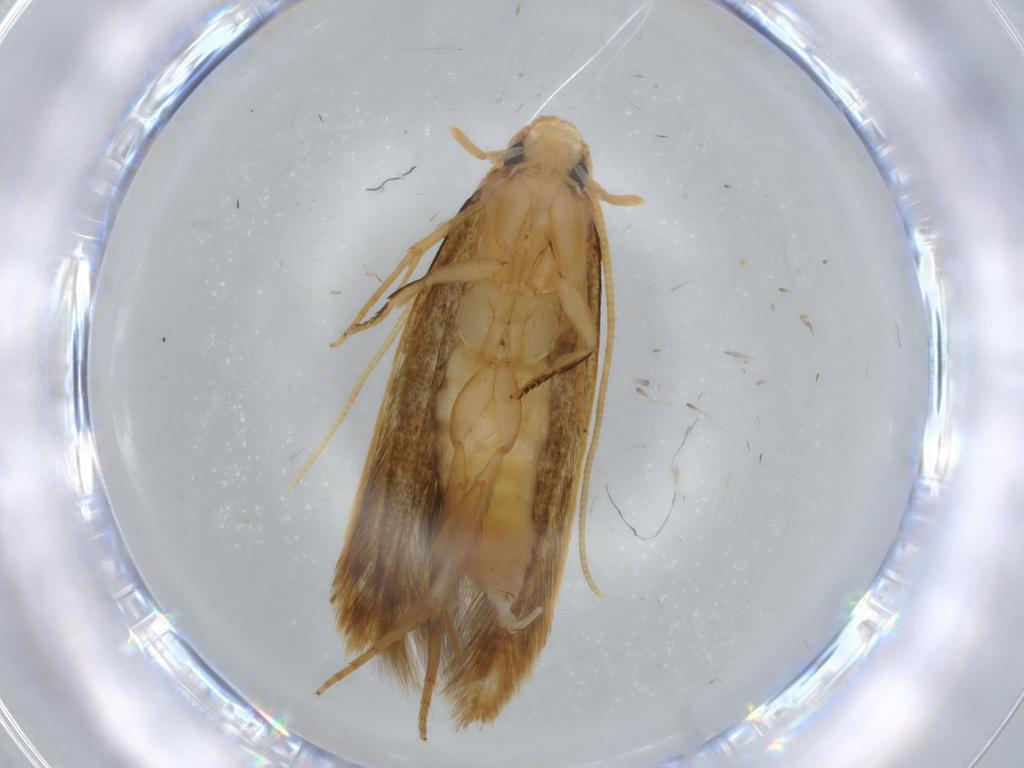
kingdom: Animalia
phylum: Arthropoda
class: Insecta
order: Lepidoptera
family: Tineidae
